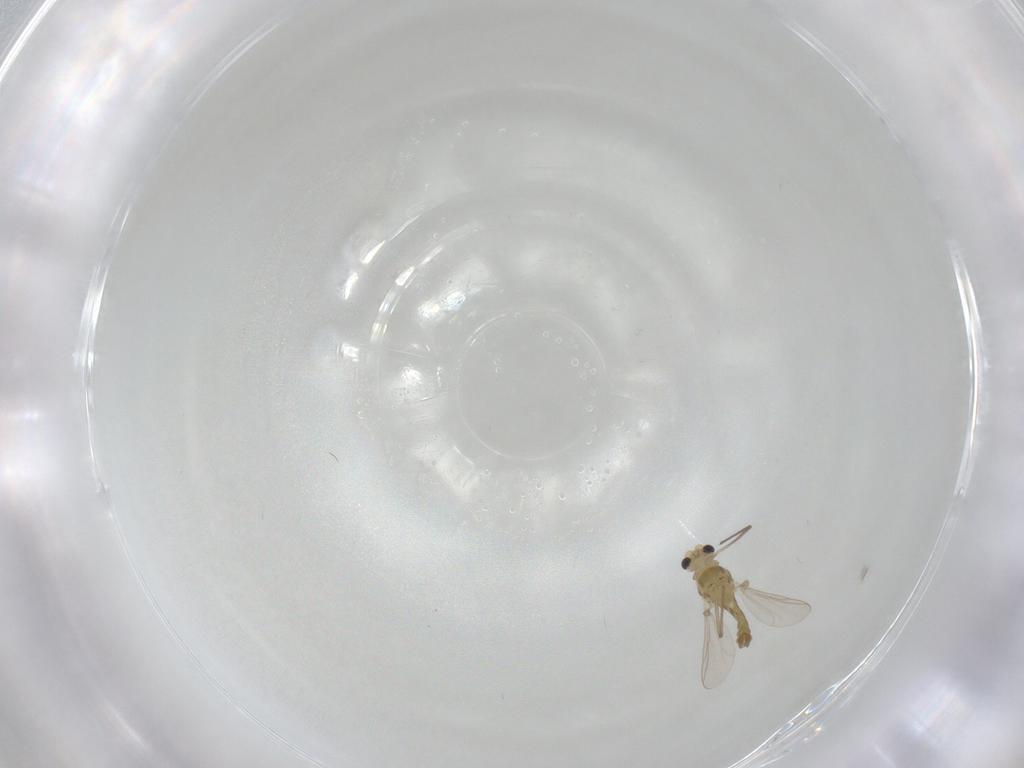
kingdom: Animalia
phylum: Arthropoda
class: Insecta
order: Diptera
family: Chironomidae
